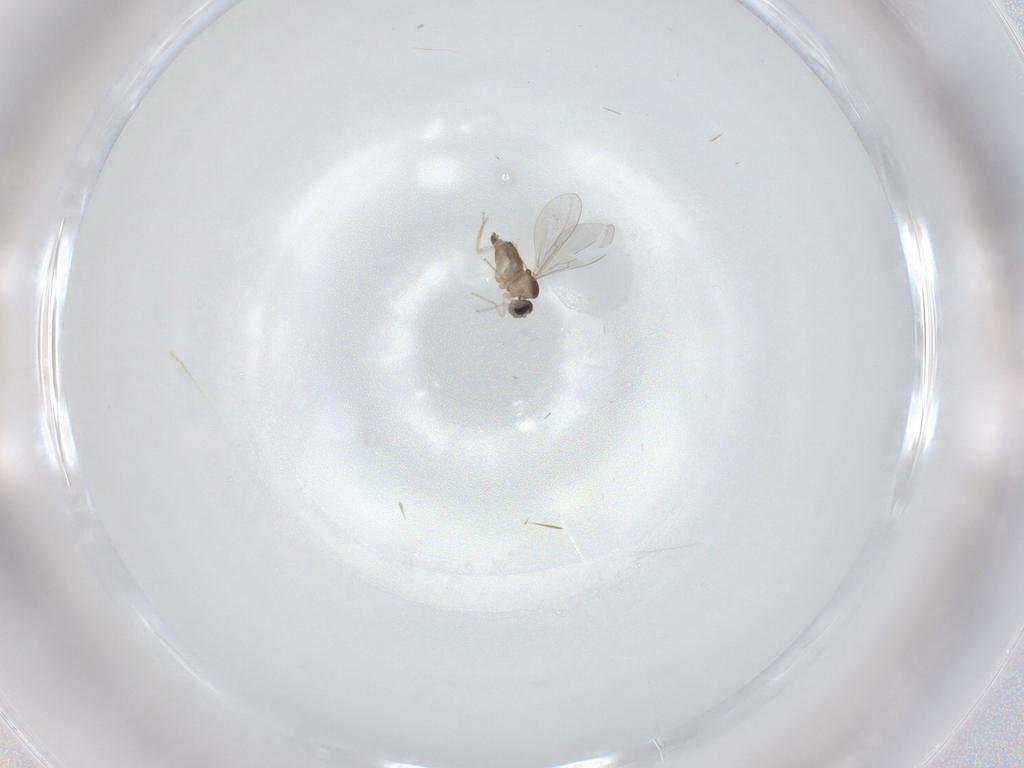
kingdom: Animalia
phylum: Arthropoda
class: Insecta
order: Diptera
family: Cecidomyiidae
